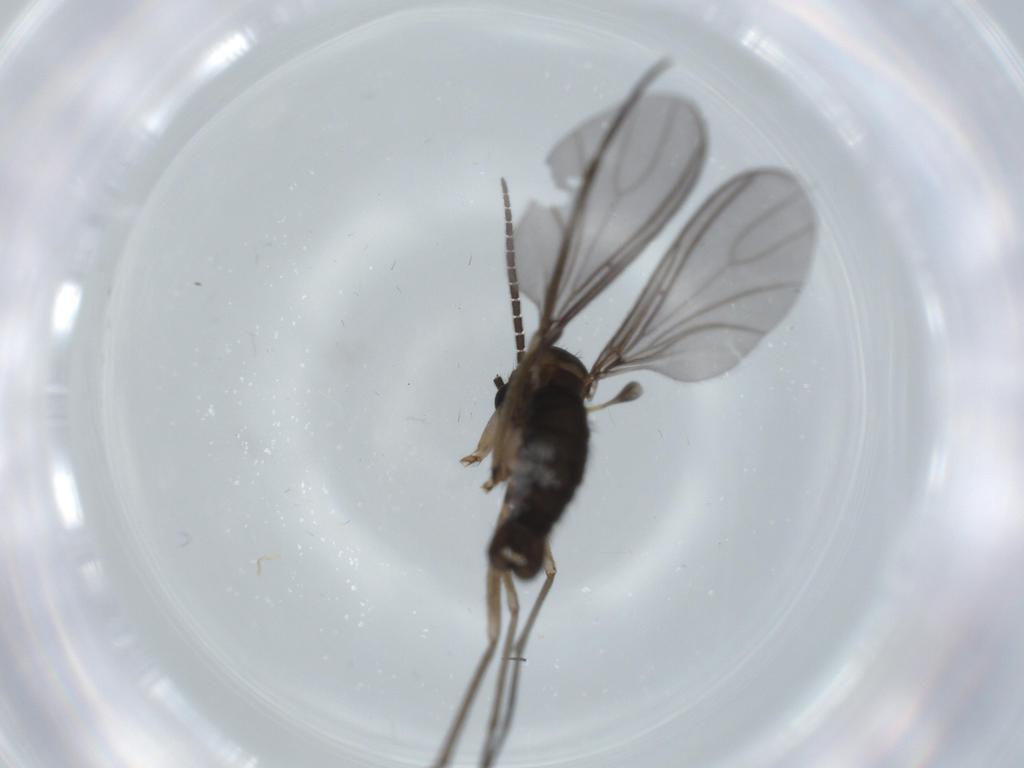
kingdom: Animalia
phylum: Arthropoda
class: Insecta
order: Diptera
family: Sciaridae
